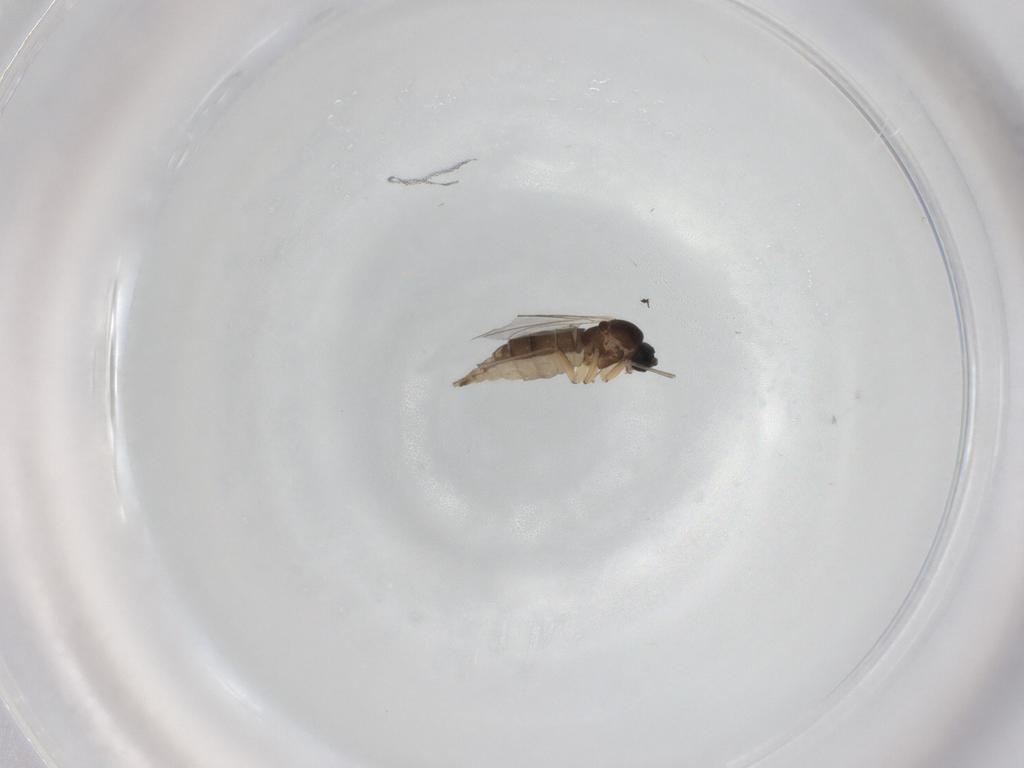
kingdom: Animalia
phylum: Arthropoda
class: Insecta
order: Diptera
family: Sciaridae
